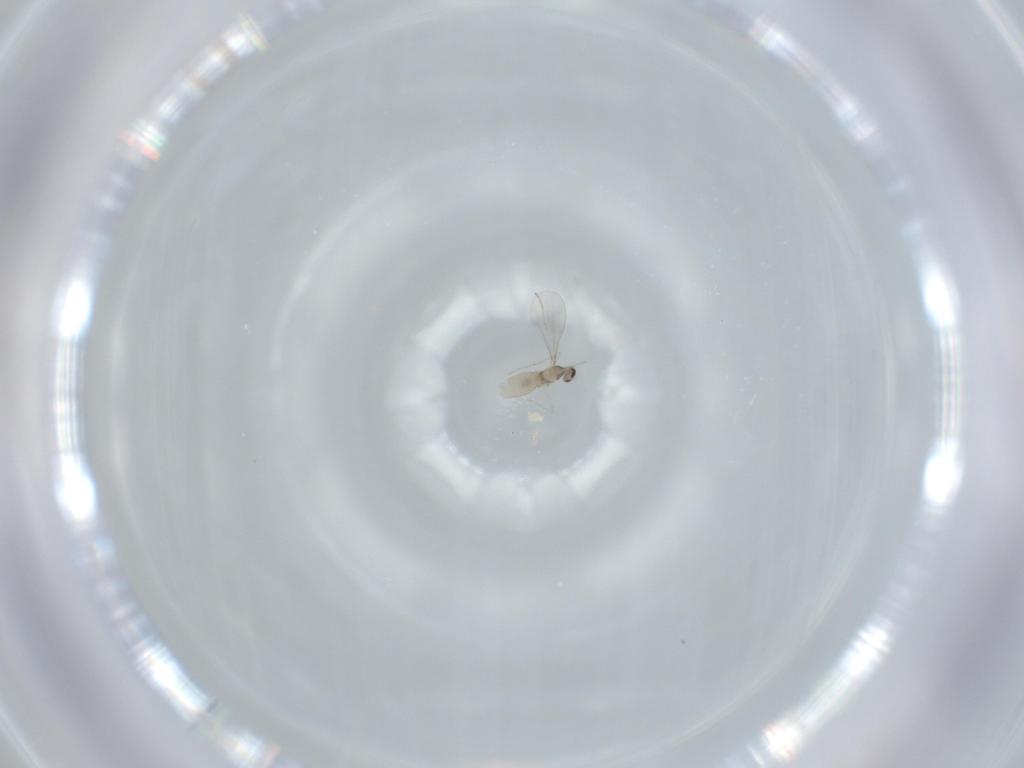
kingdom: Animalia
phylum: Arthropoda
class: Insecta
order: Diptera
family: Cecidomyiidae
